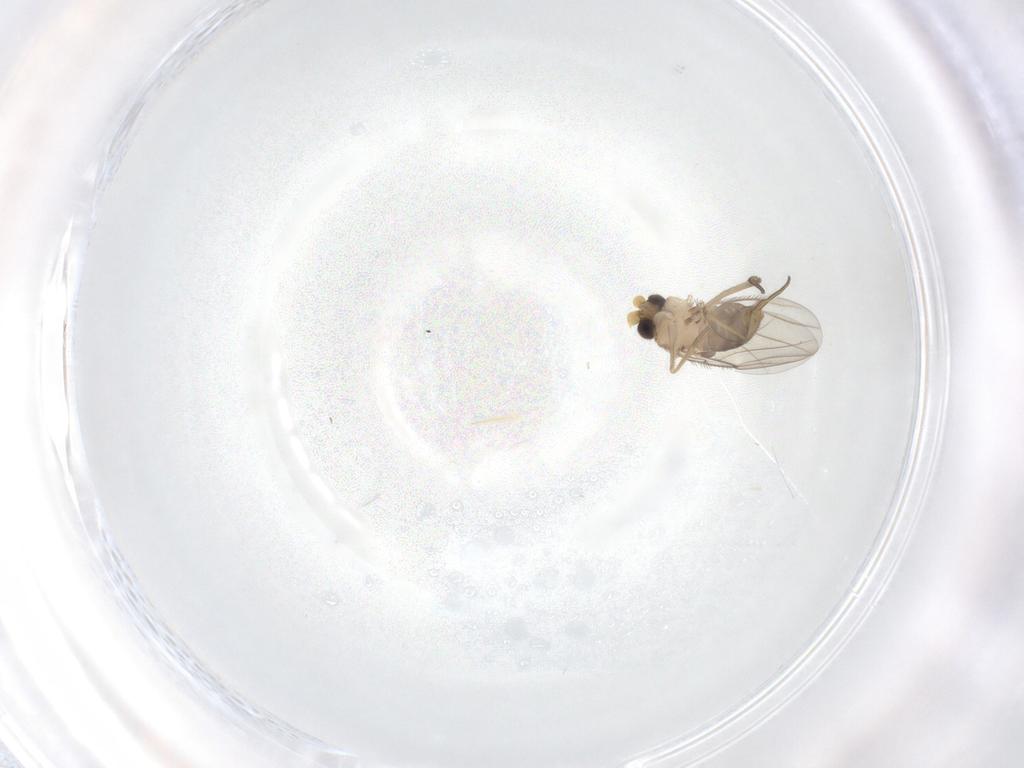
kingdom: Animalia
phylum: Arthropoda
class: Insecta
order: Diptera
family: Phoridae
